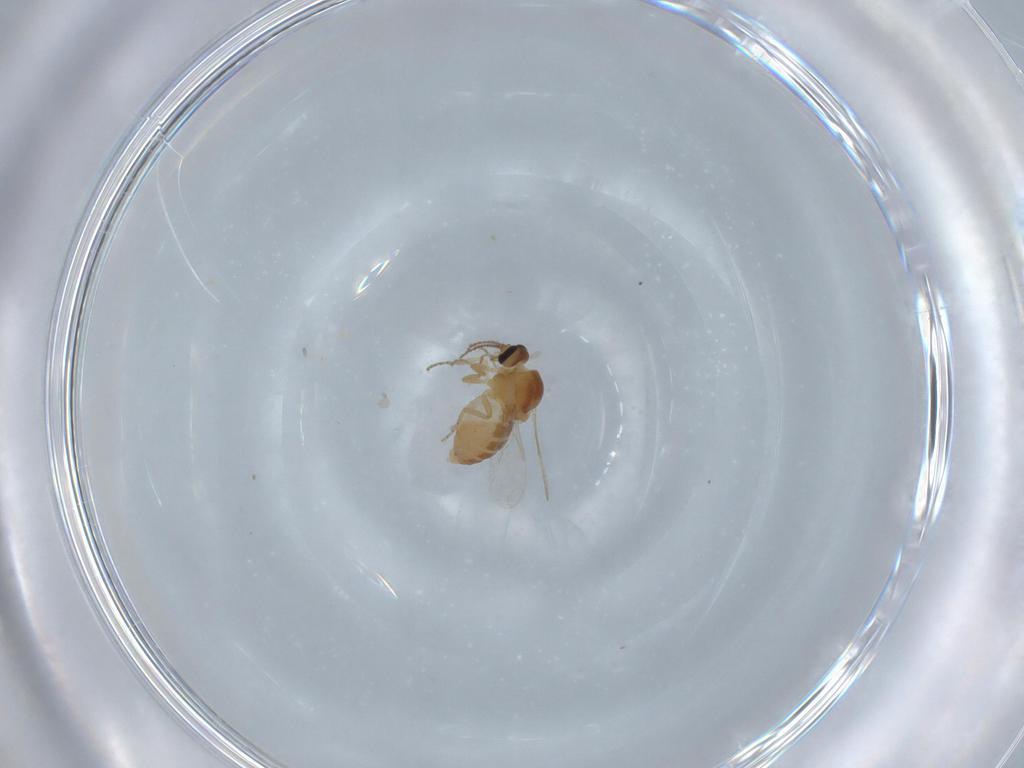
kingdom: Animalia
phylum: Arthropoda
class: Insecta
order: Diptera
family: Ceratopogonidae
